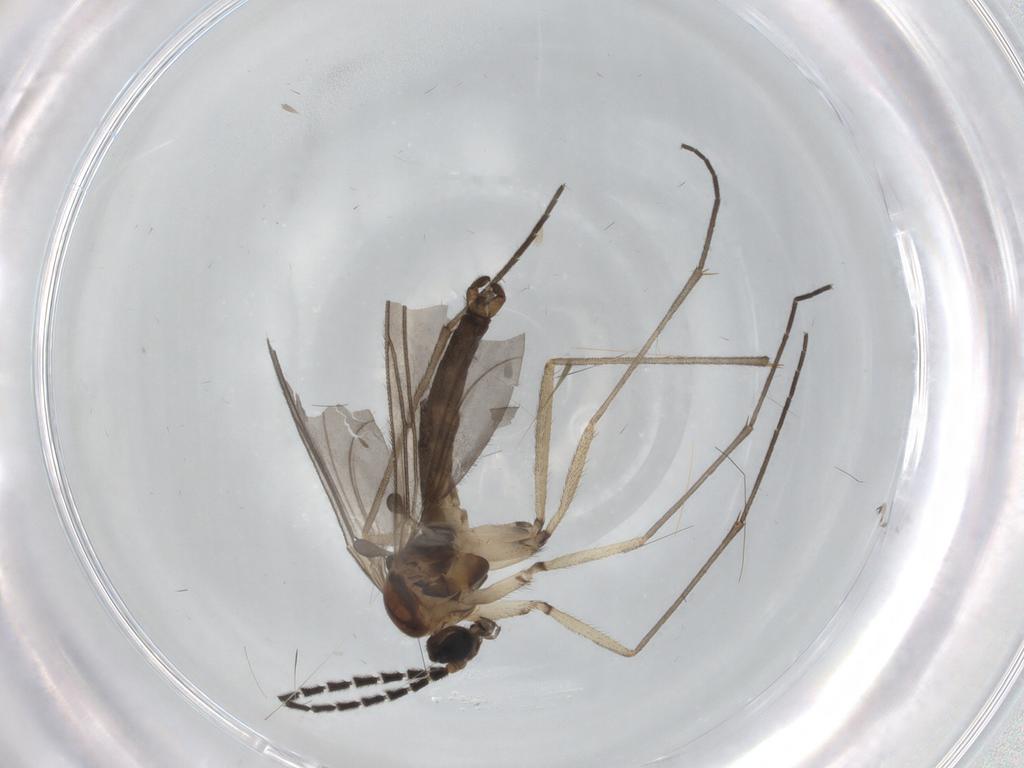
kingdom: Animalia
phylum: Arthropoda
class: Insecta
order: Diptera
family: Sciaridae
